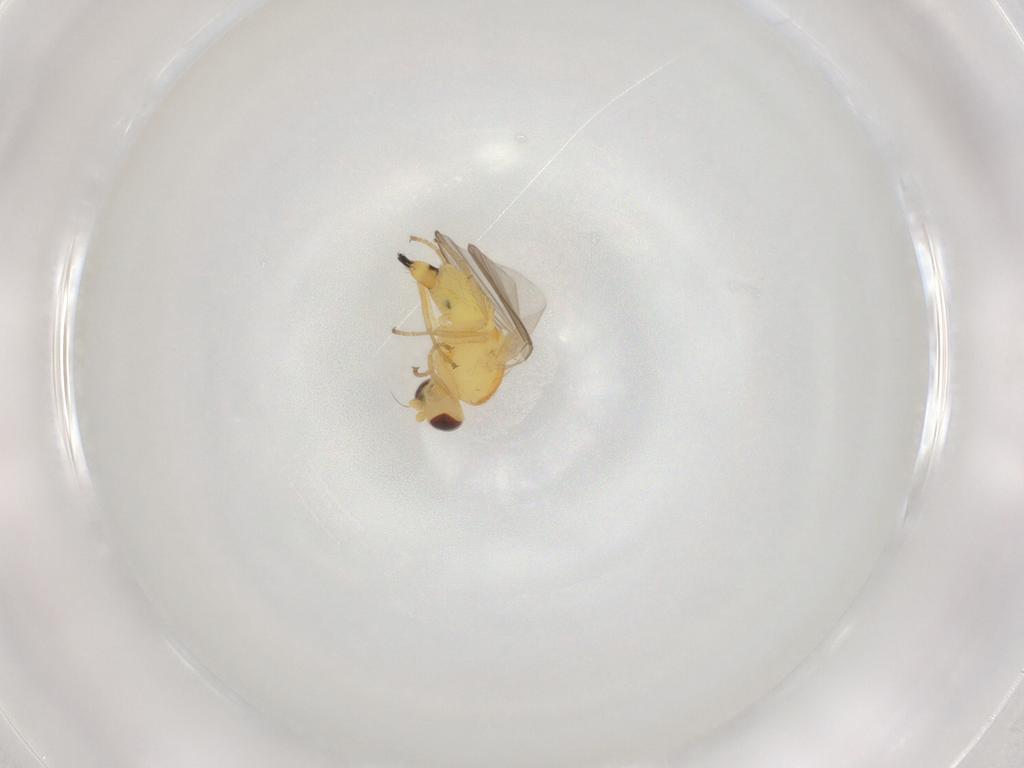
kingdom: Animalia
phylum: Arthropoda
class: Insecta
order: Diptera
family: Agromyzidae
